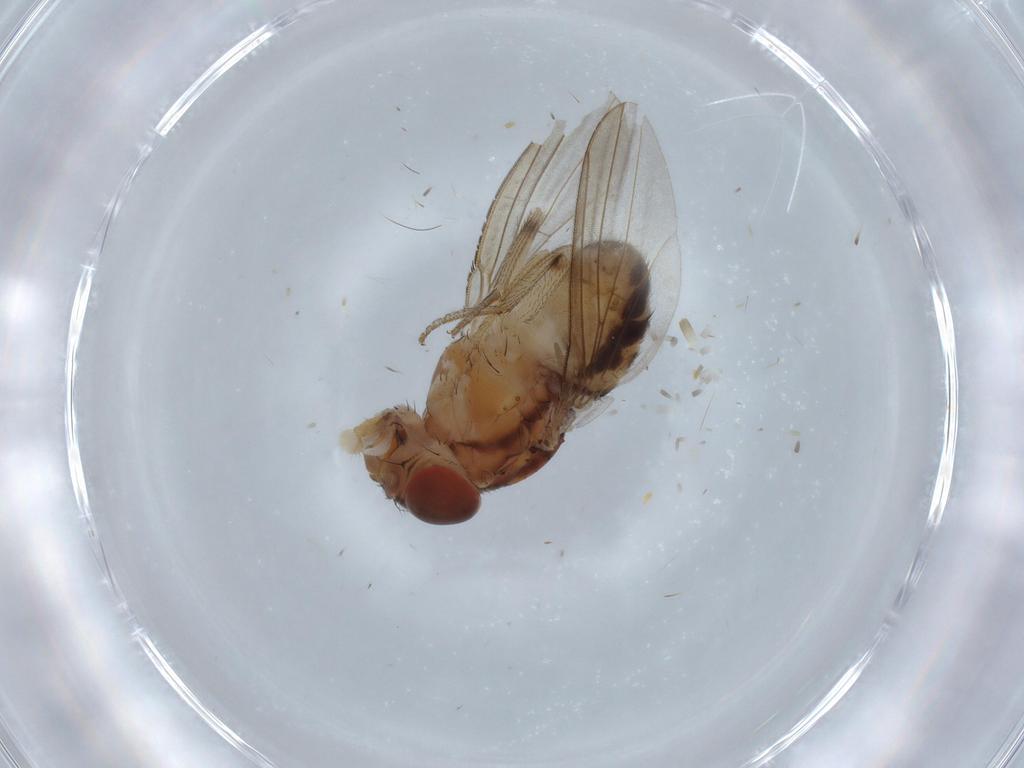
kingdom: Animalia
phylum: Arthropoda
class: Insecta
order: Diptera
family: Drosophilidae
